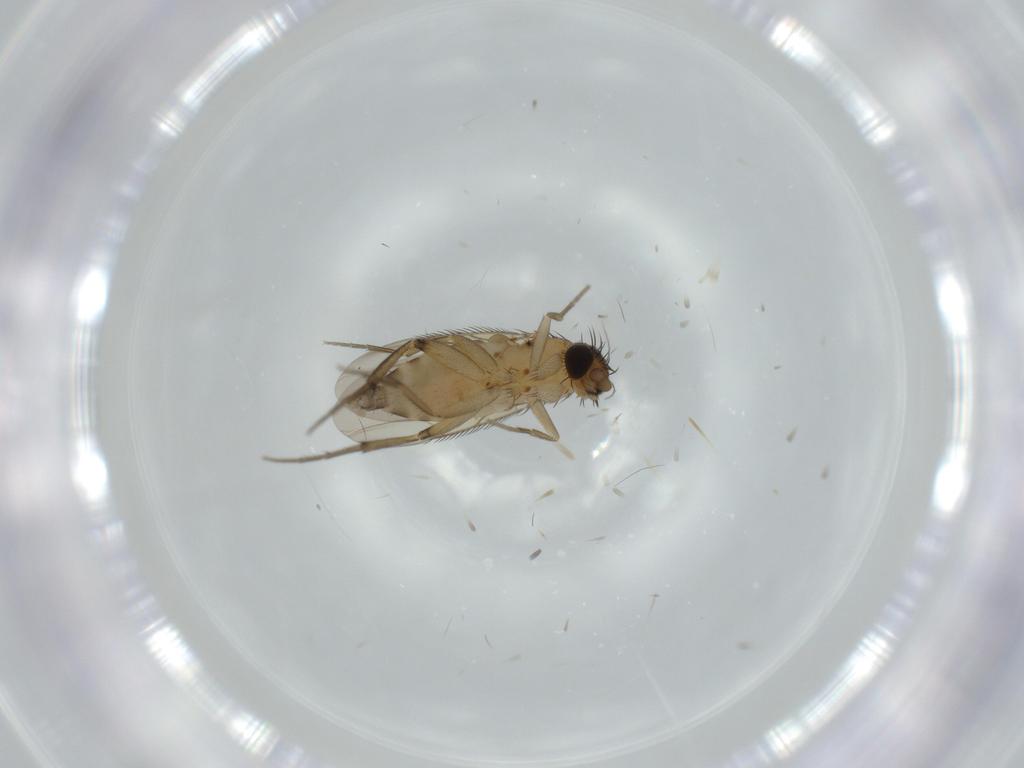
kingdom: Animalia
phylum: Arthropoda
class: Insecta
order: Diptera
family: Phoridae
